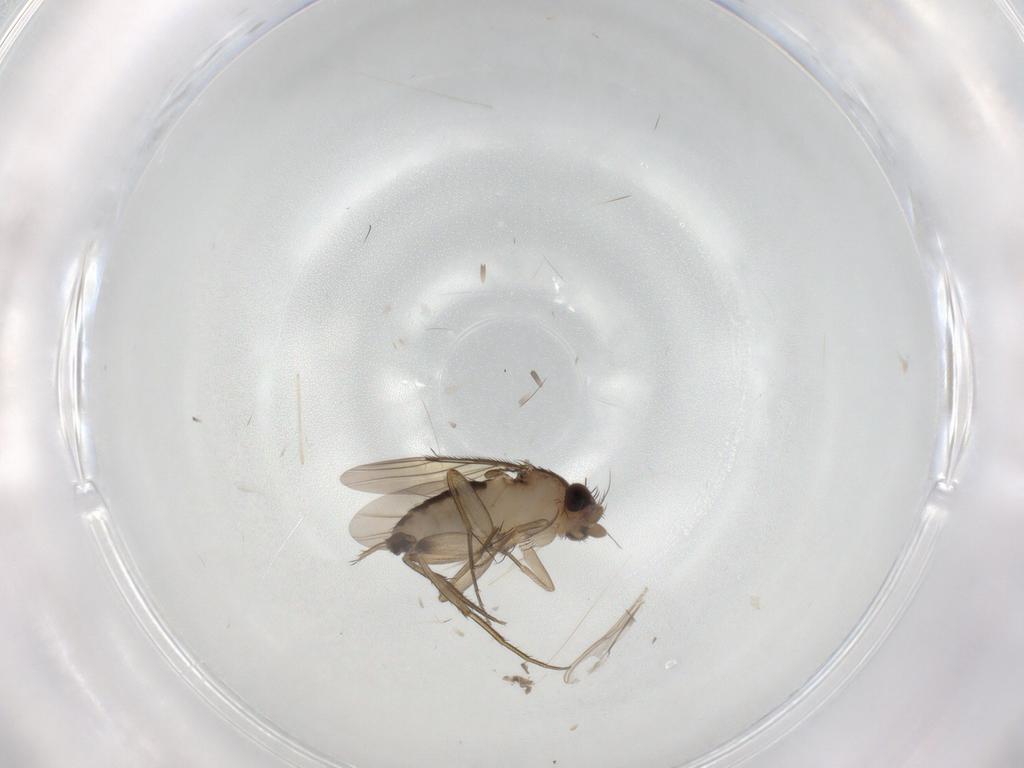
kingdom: Animalia
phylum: Arthropoda
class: Insecta
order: Diptera
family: Phoridae
